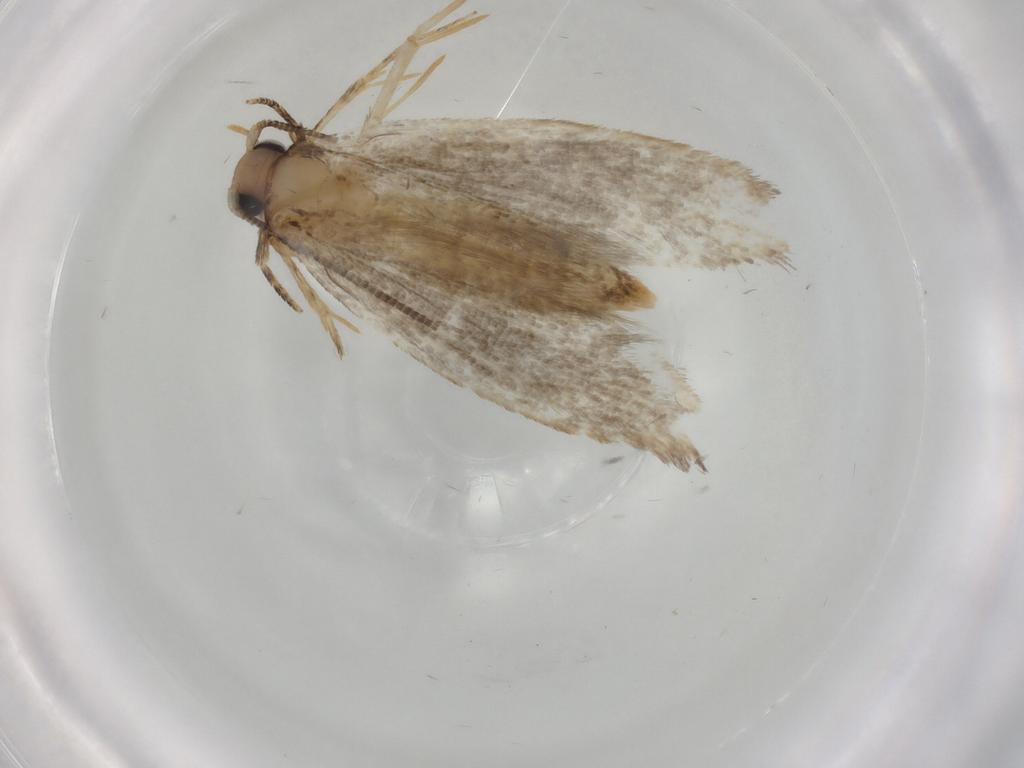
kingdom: Animalia
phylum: Arthropoda
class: Insecta
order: Lepidoptera
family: Tineidae
